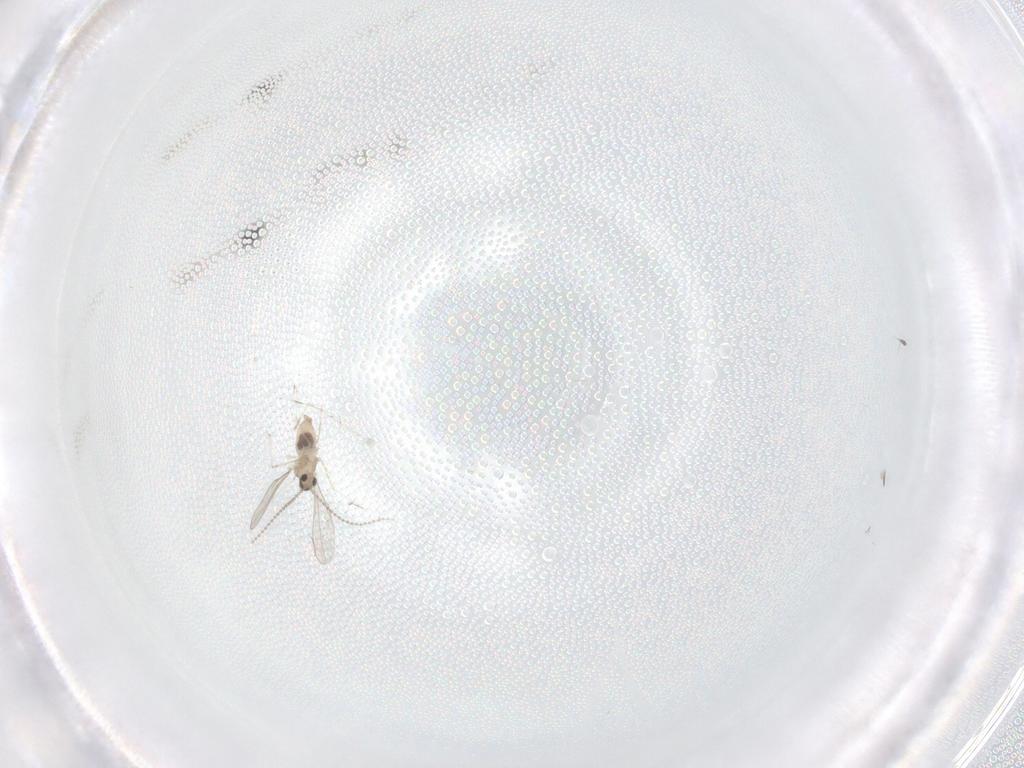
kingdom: Animalia
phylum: Arthropoda
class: Insecta
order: Diptera
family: Cecidomyiidae
